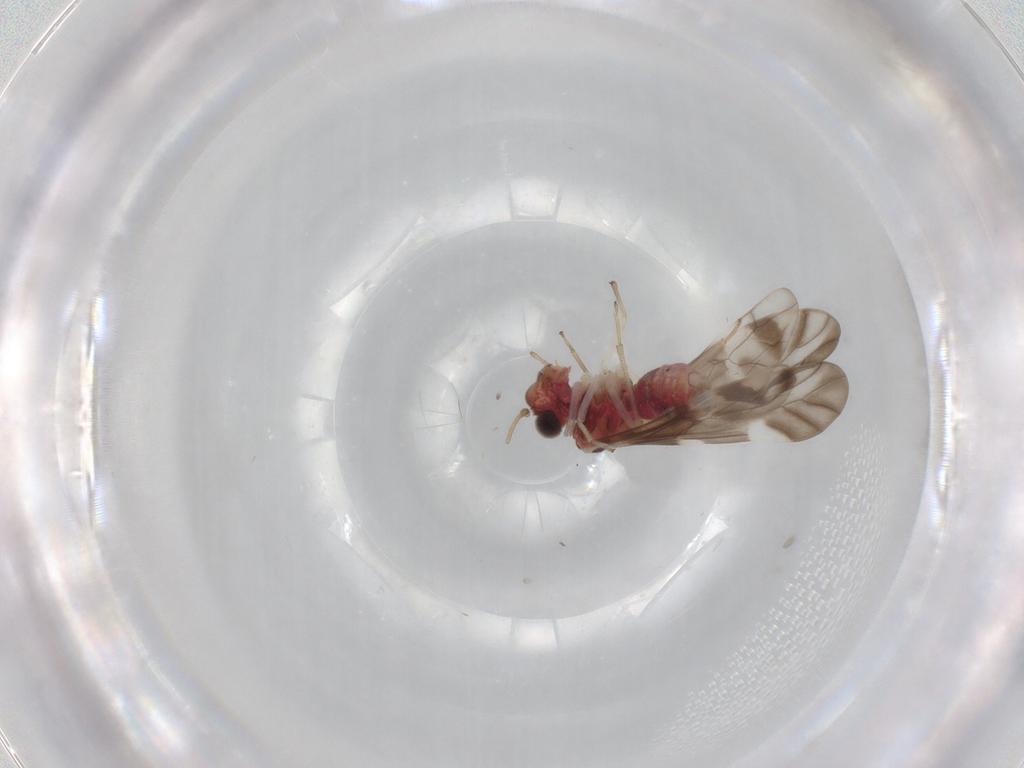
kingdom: Animalia
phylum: Arthropoda
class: Insecta
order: Psocodea
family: Caeciliusidae
